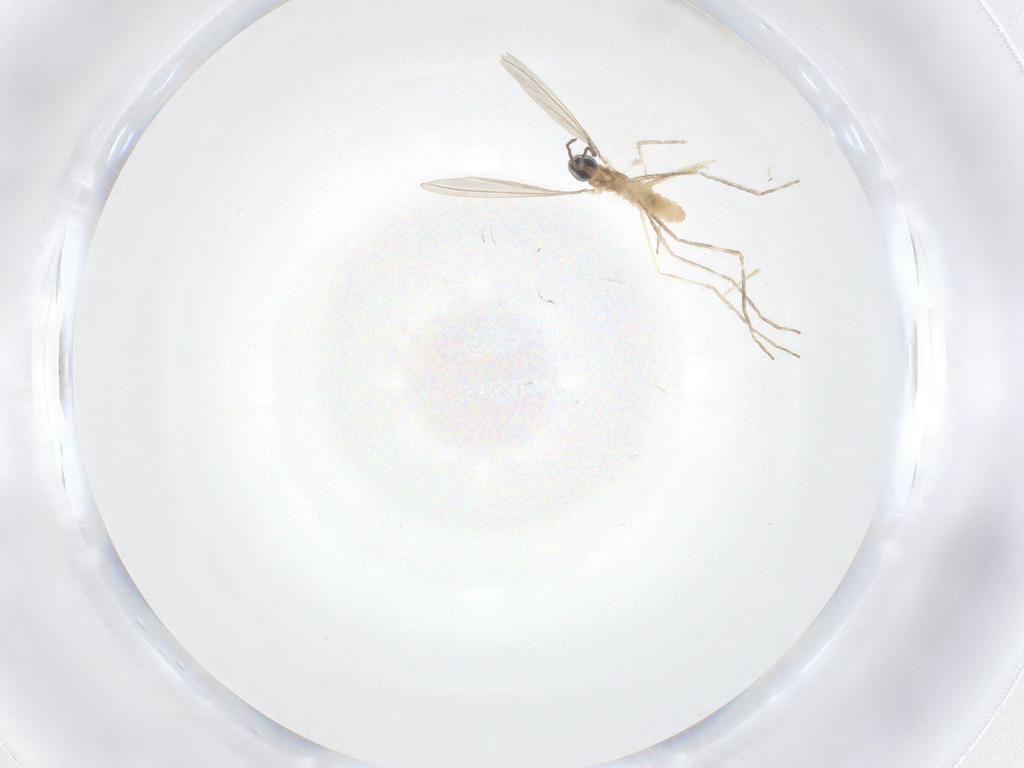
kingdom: Animalia
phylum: Arthropoda
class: Insecta
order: Diptera
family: Cecidomyiidae
